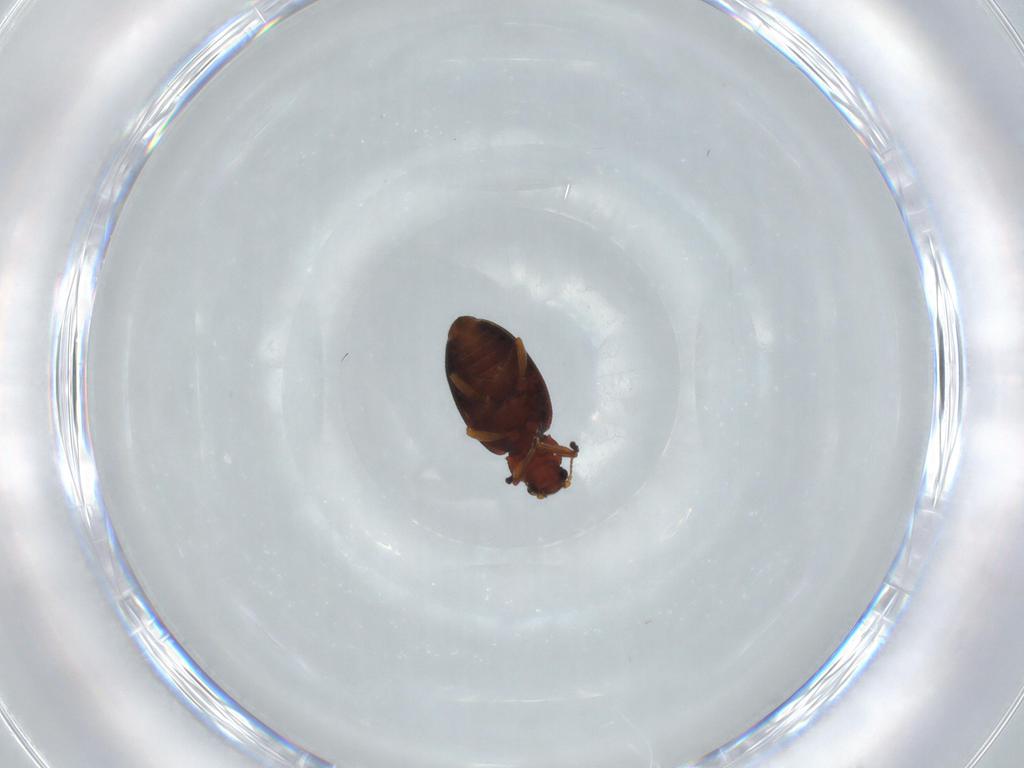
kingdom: Animalia
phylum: Arthropoda
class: Insecta
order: Coleoptera
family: Latridiidae
